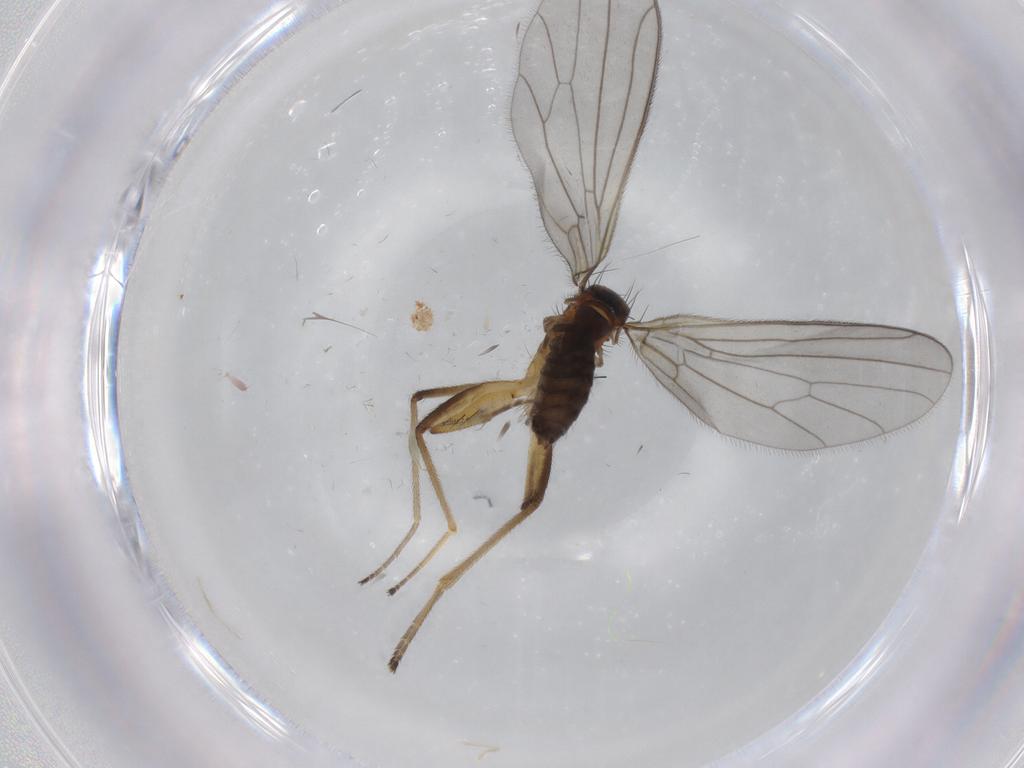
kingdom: Animalia
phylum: Arthropoda
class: Insecta
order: Diptera
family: Empididae
